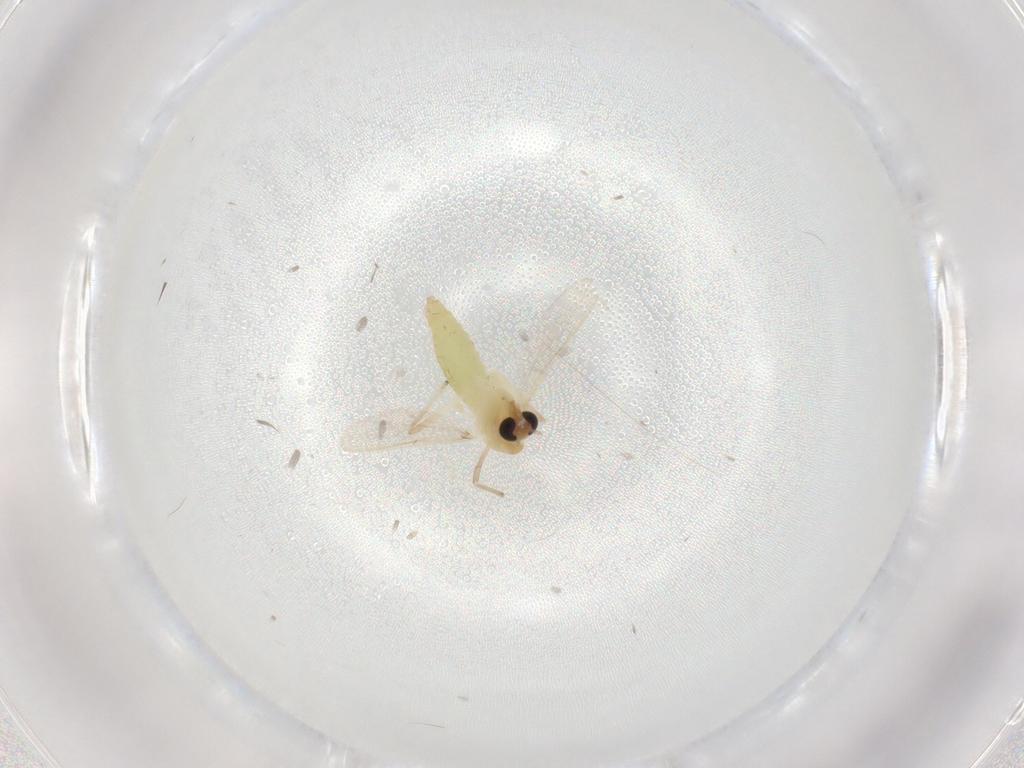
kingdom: Animalia
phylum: Arthropoda
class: Insecta
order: Diptera
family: Chironomidae
